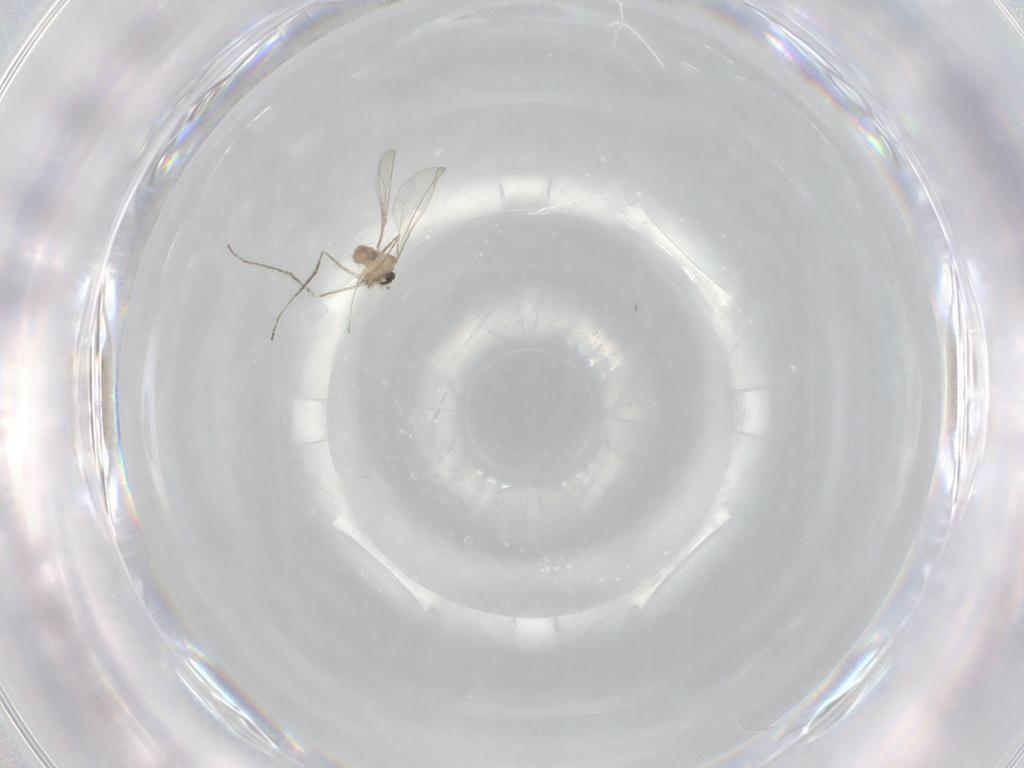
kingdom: Animalia
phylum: Arthropoda
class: Insecta
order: Diptera
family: Cecidomyiidae
